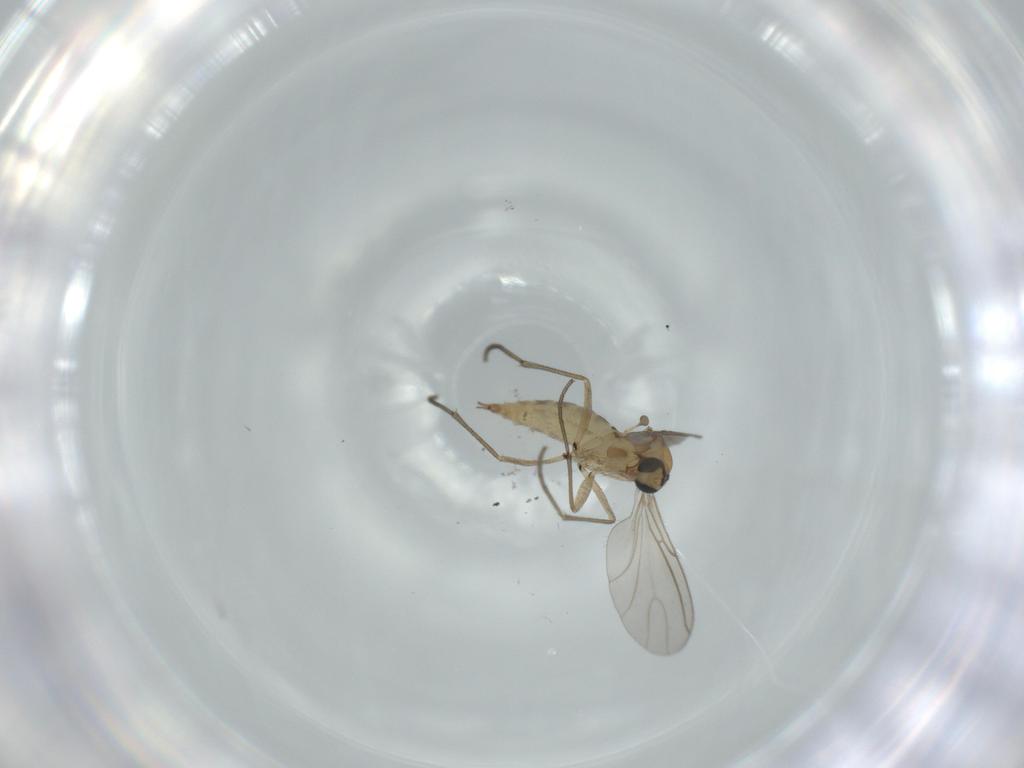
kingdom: Animalia
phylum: Arthropoda
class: Insecta
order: Diptera
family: Sciaridae
